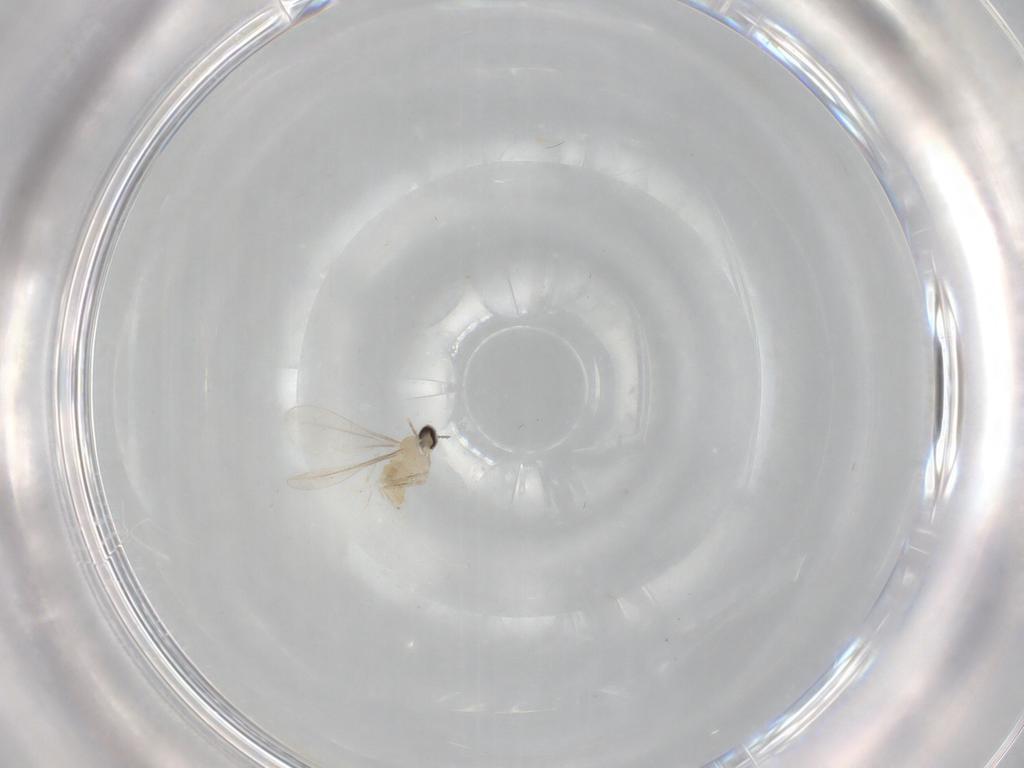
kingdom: Animalia
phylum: Arthropoda
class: Insecta
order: Diptera
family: Cecidomyiidae
